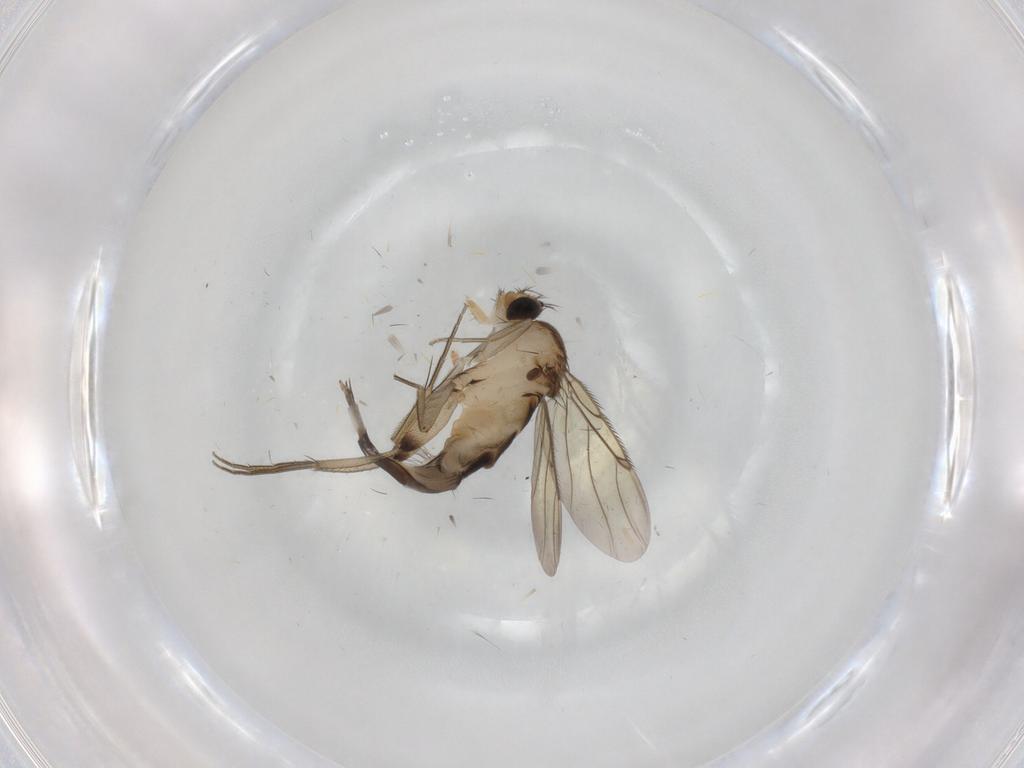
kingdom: Animalia
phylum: Arthropoda
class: Insecta
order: Diptera
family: Phoridae
